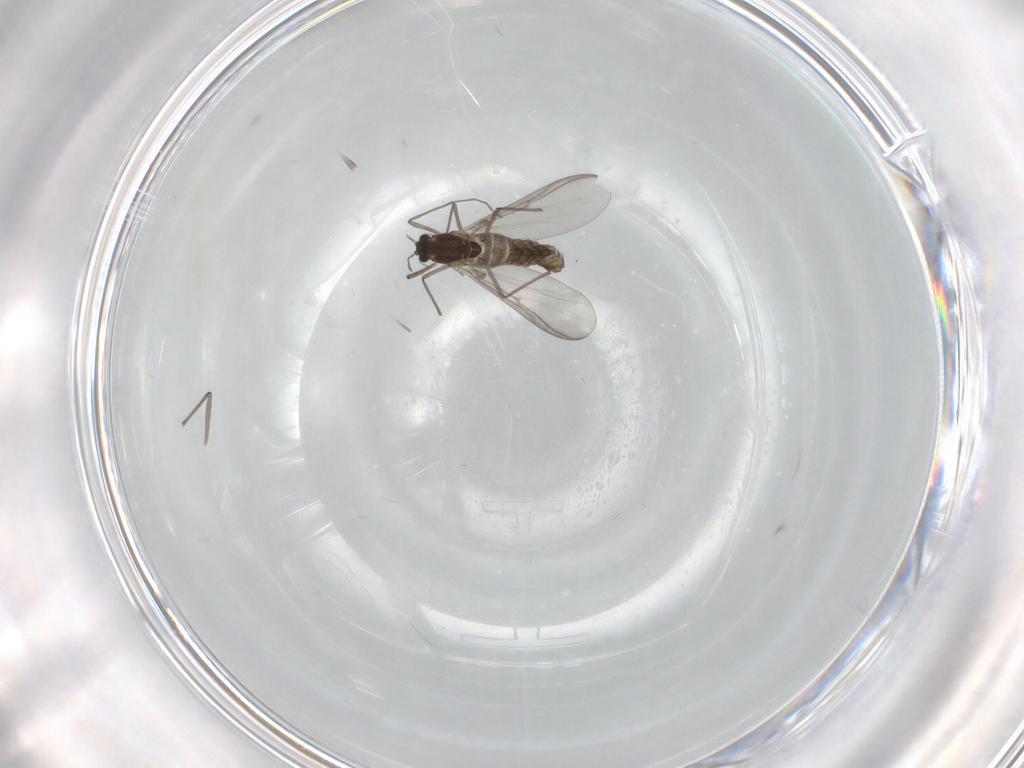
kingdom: Animalia
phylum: Arthropoda
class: Insecta
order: Diptera
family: Chironomidae
